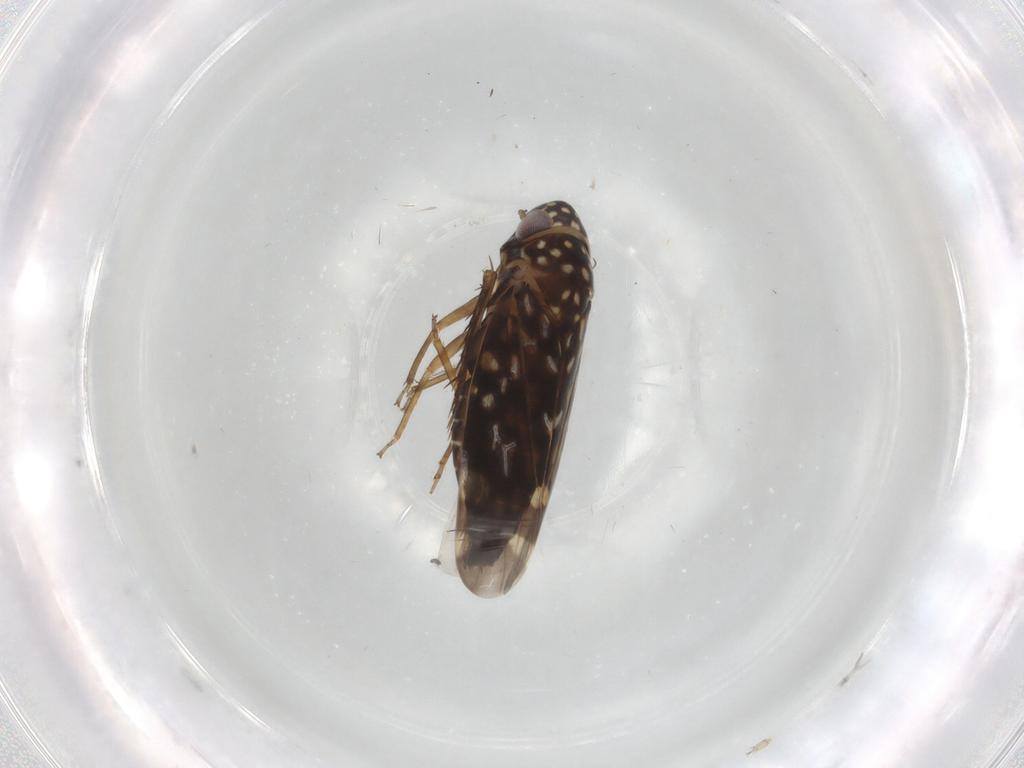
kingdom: Animalia
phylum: Arthropoda
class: Insecta
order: Hemiptera
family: Cicadellidae
